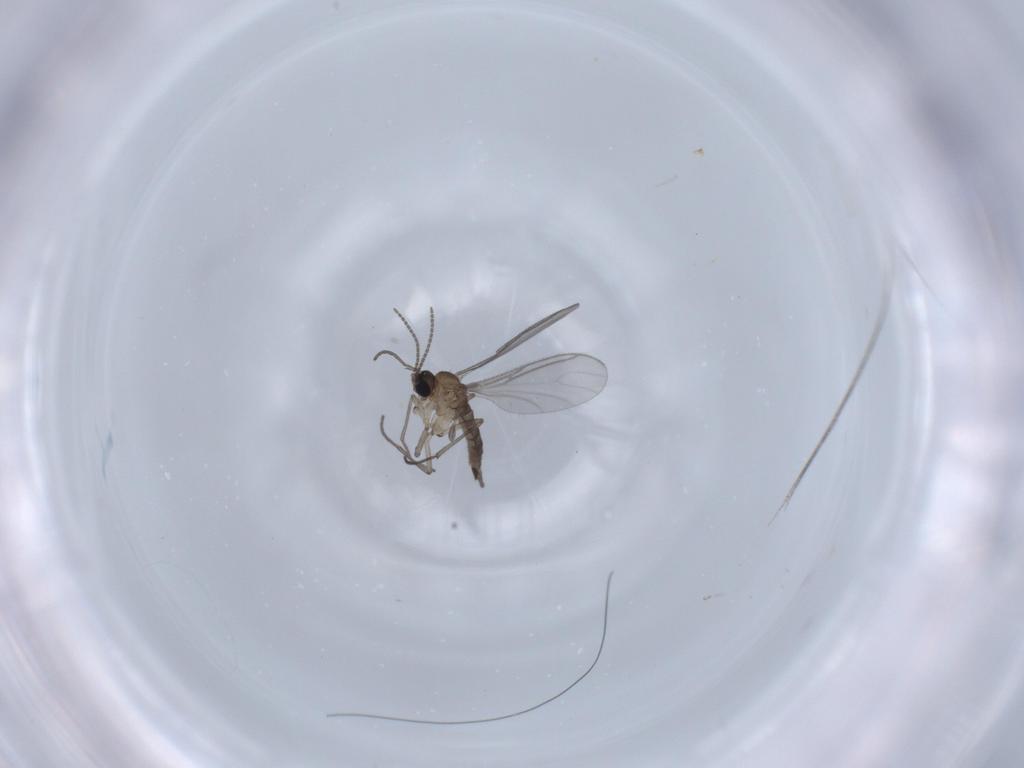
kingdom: Animalia
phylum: Arthropoda
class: Insecta
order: Diptera
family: Sciaridae
